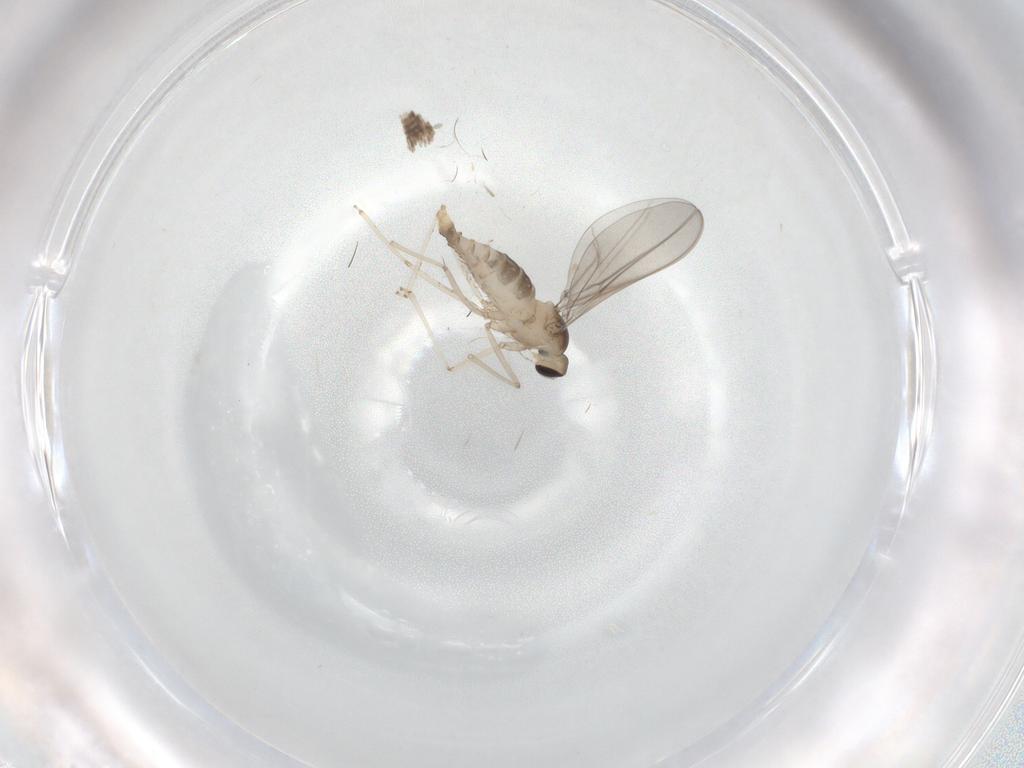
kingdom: Animalia
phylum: Arthropoda
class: Insecta
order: Diptera
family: Cecidomyiidae
